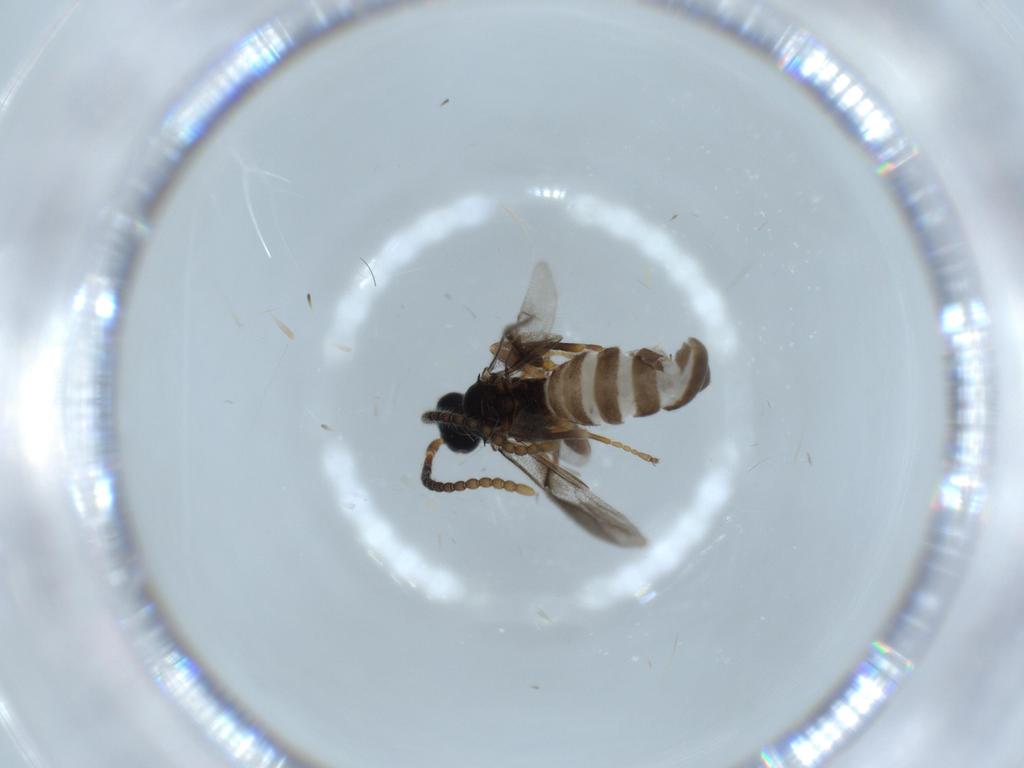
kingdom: Animalia
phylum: Arthropoda
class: Insecta
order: Hymenoptera
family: Braconidae
